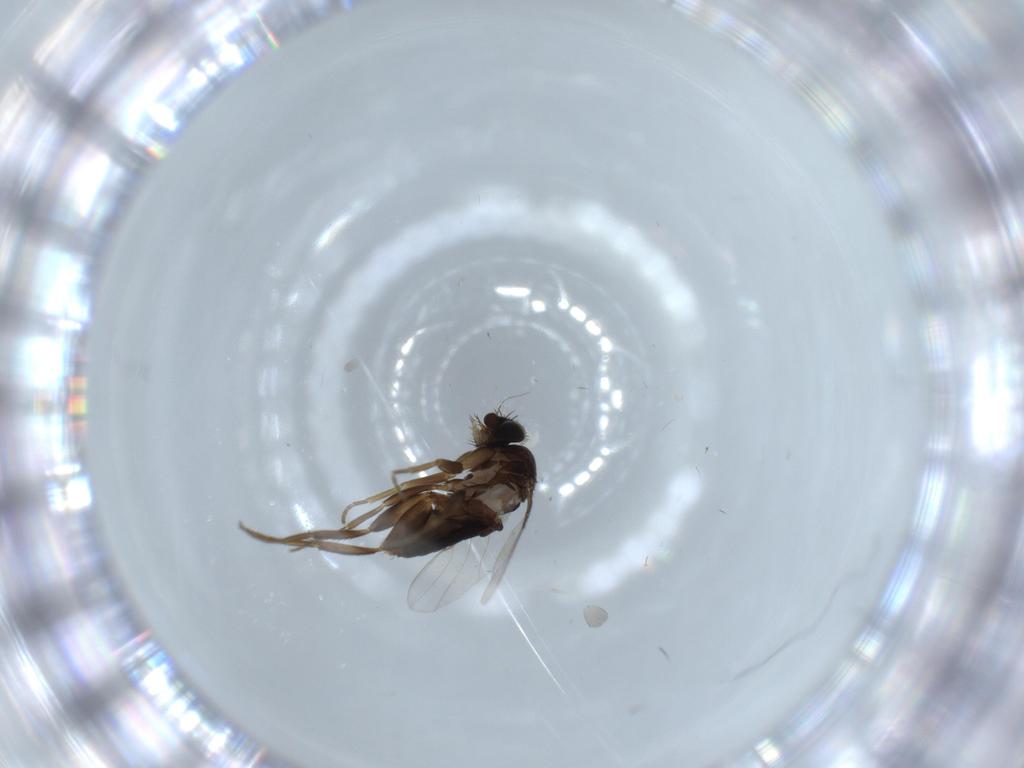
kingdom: Animalia
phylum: Arthropoda
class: Insecta
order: Diptera
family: Phoridae
